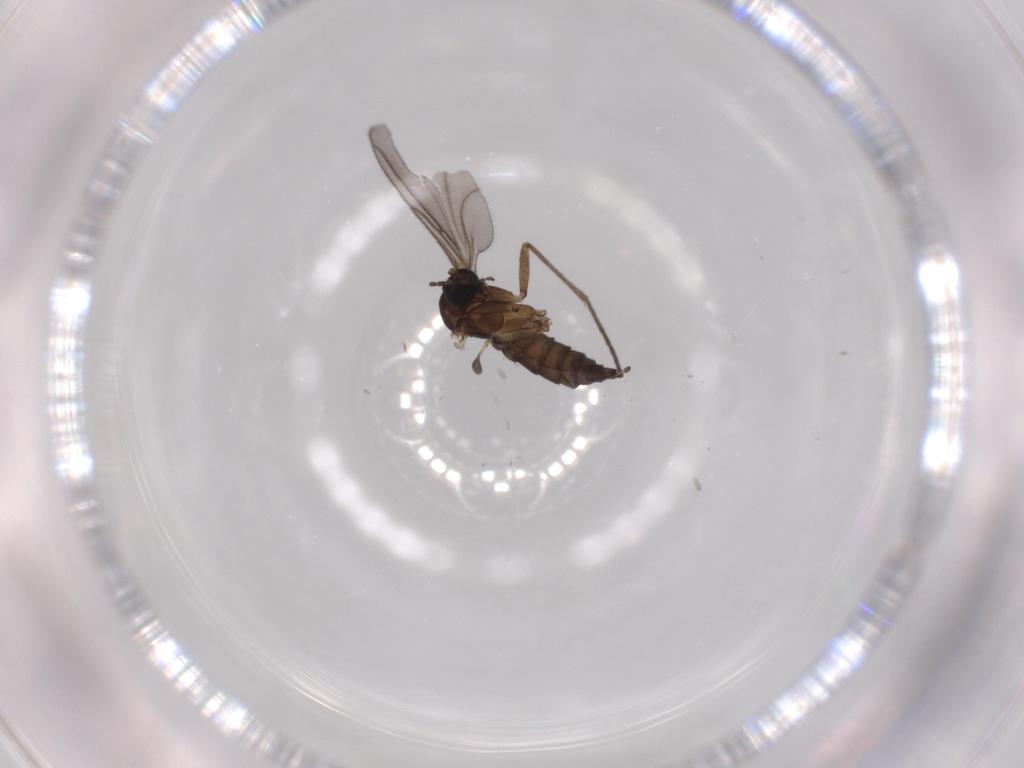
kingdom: Animalia
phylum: Arthropoda
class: Insecta
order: Diptera
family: Sciaridae
